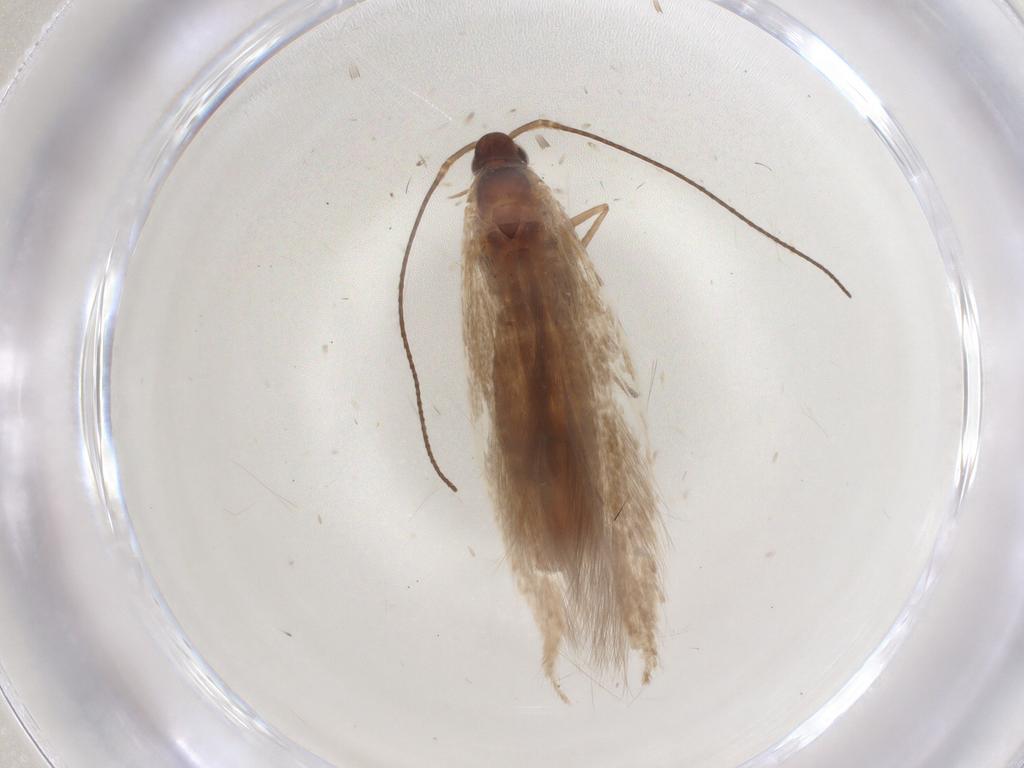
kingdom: Animalia
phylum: Arthropoda
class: Insecta
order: Lepidoptera
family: Coleophoridae
